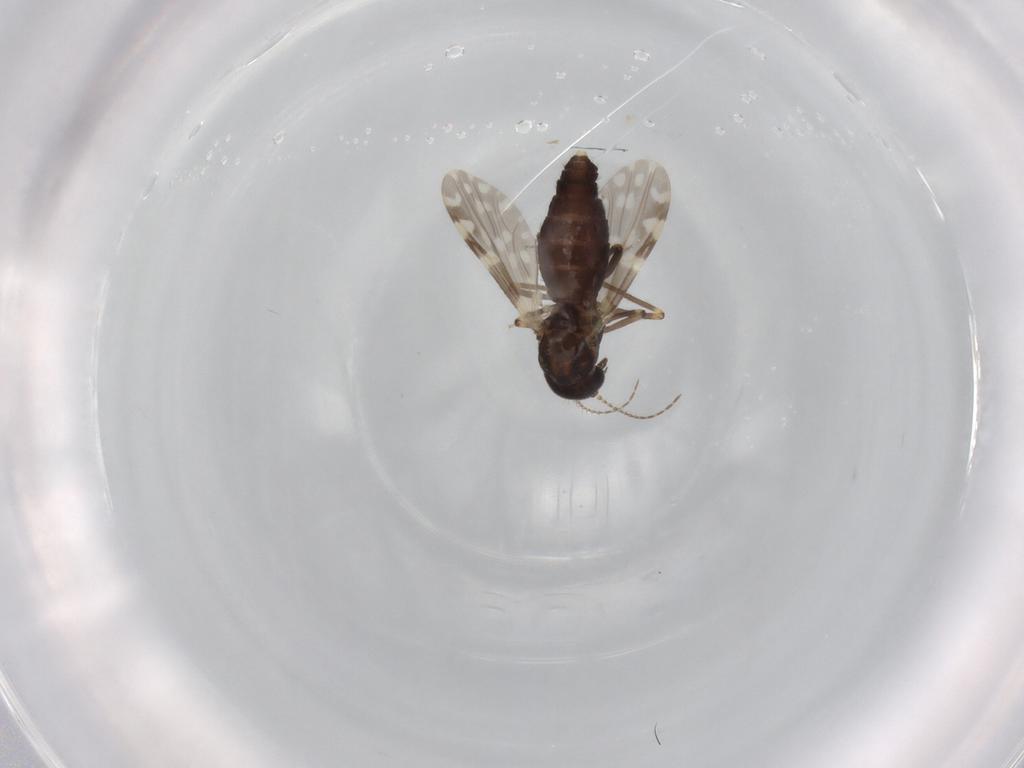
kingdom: Animalia
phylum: Arthropoda
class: Insecta
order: Diptera
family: Ceratopogonidae
